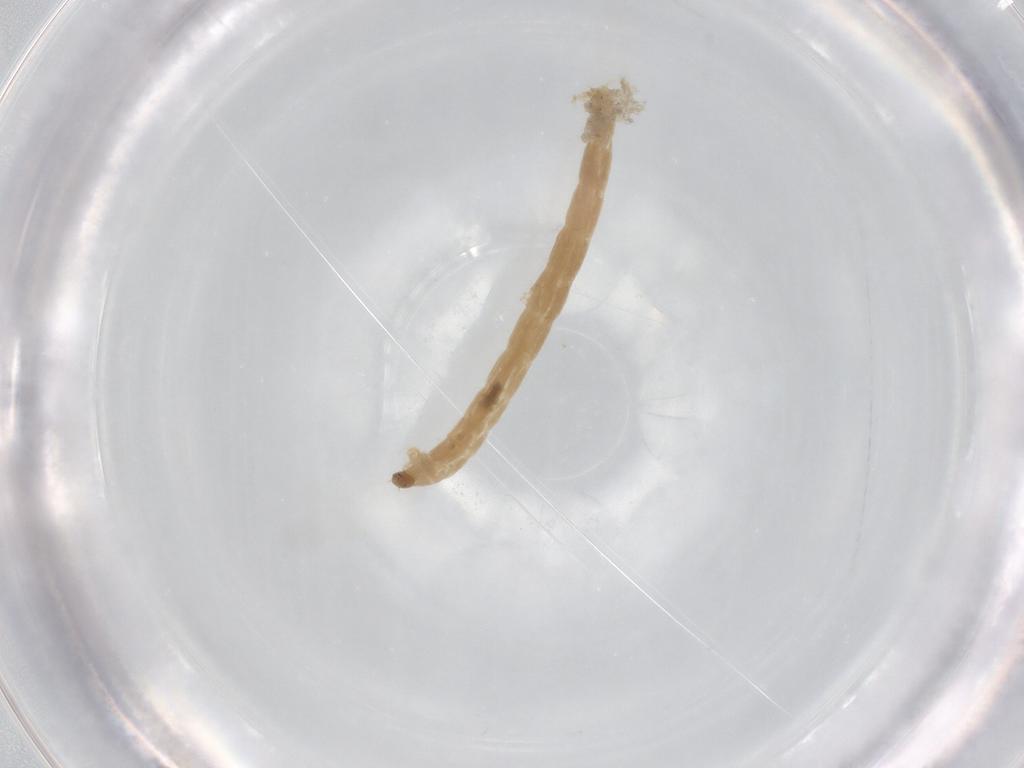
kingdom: Animalia
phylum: Arthropoda
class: Insecta
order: Diptera
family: Chironomidae
